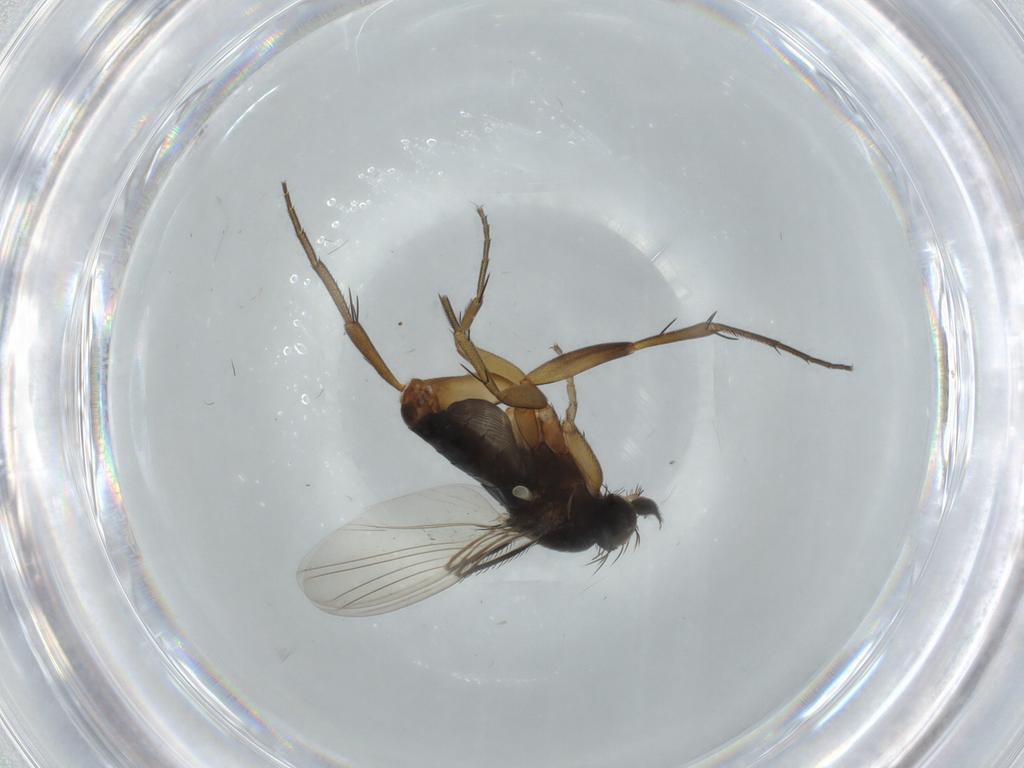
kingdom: Animalia
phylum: Arthropoda
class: Insecta
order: Diptera
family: Phoridae
